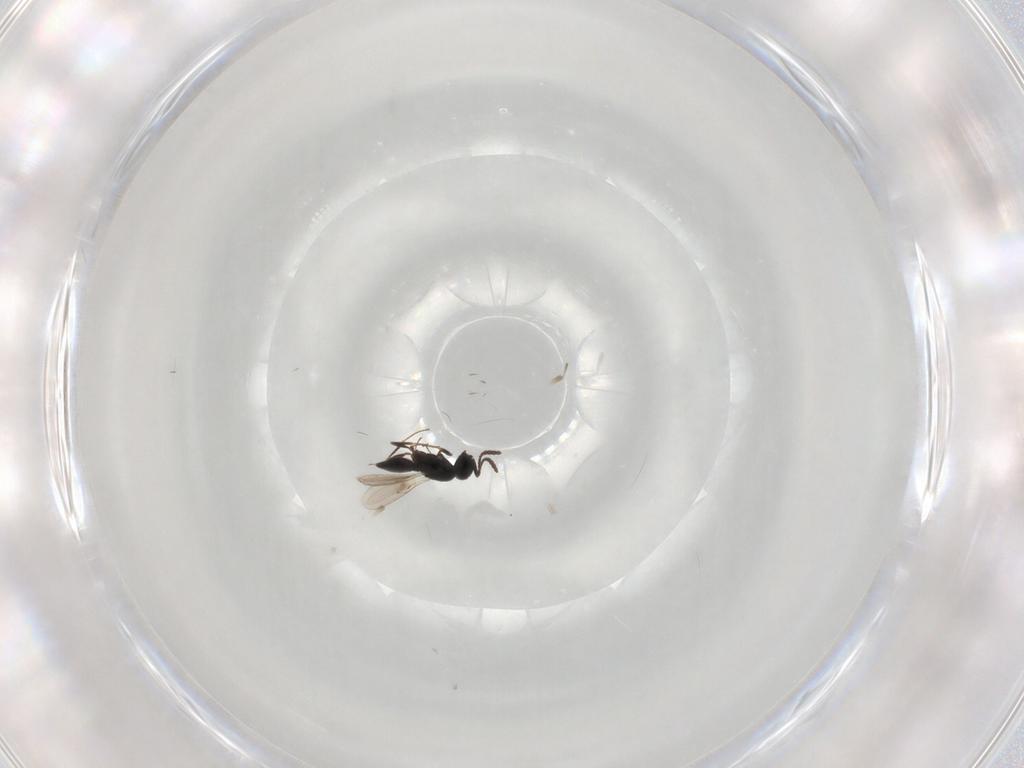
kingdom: Animalia
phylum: Arthropoda
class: Insecta
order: Hymenoptera
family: Scelionidae
